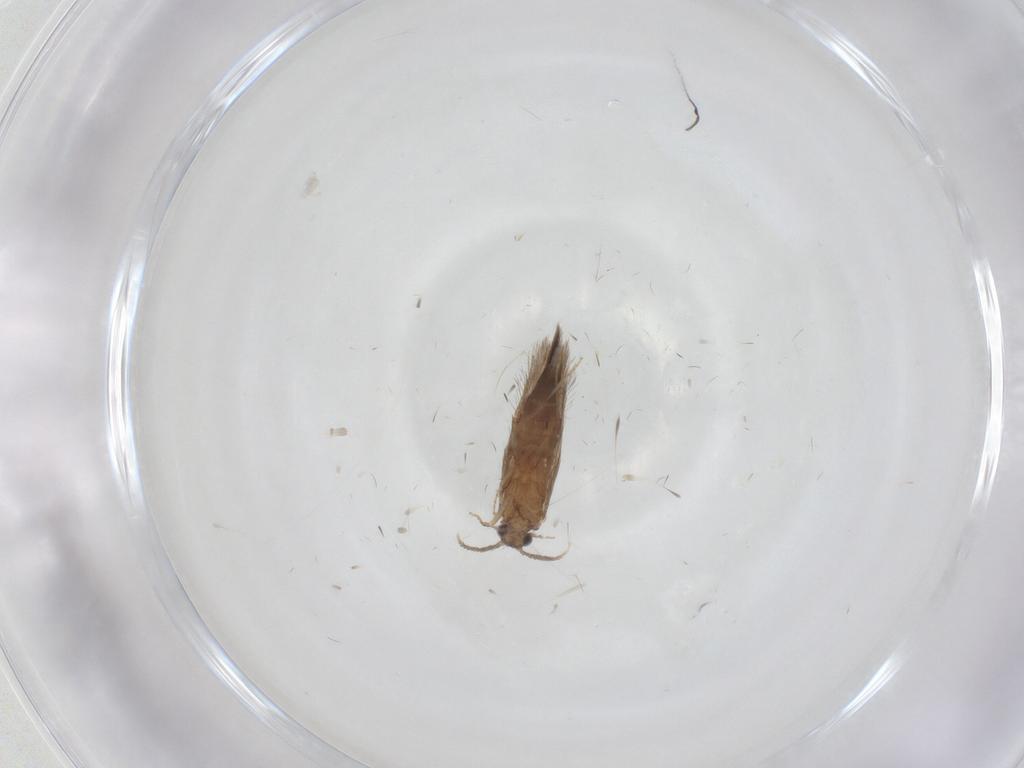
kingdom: Animalia
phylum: Arthropoda
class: Insecta
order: Trichoptera
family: Hydroptilidae
